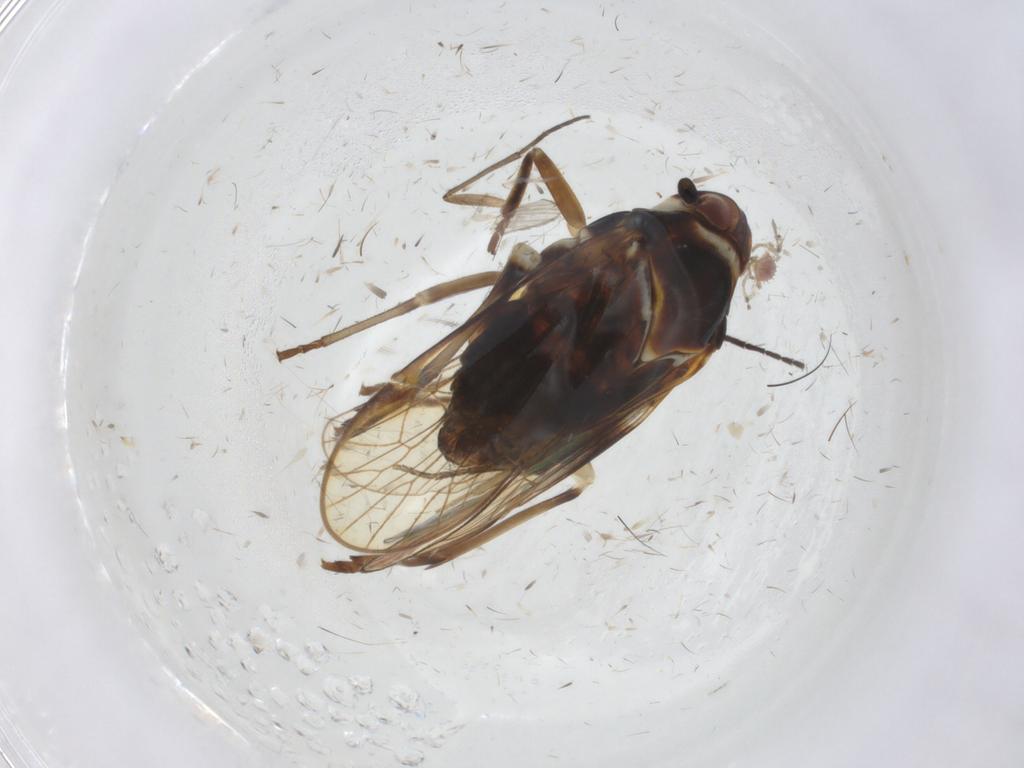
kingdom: Animalia
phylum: Arthropoda
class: Insecta
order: Hemiptera
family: Kinnaridae
